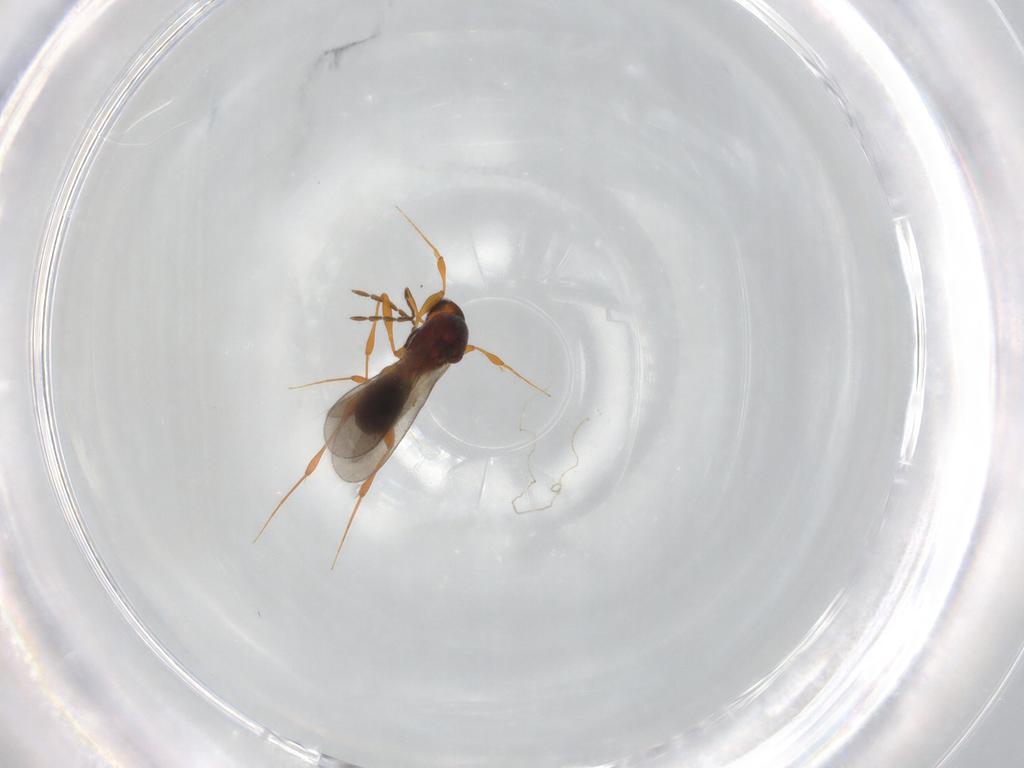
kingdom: Animalia
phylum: Arthropoda
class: Insecta
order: Hymenoptera
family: Platygastridae
